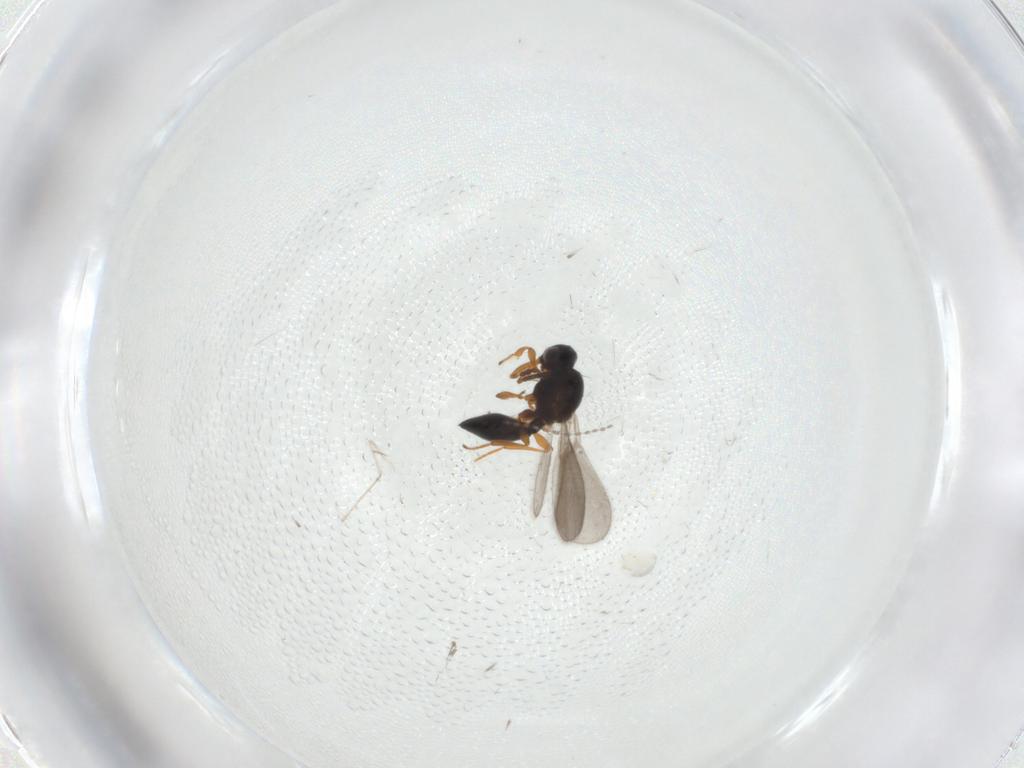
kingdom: Animalia
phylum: Arthropoda
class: Insecta
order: Hymenoptera
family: Platygastridae
